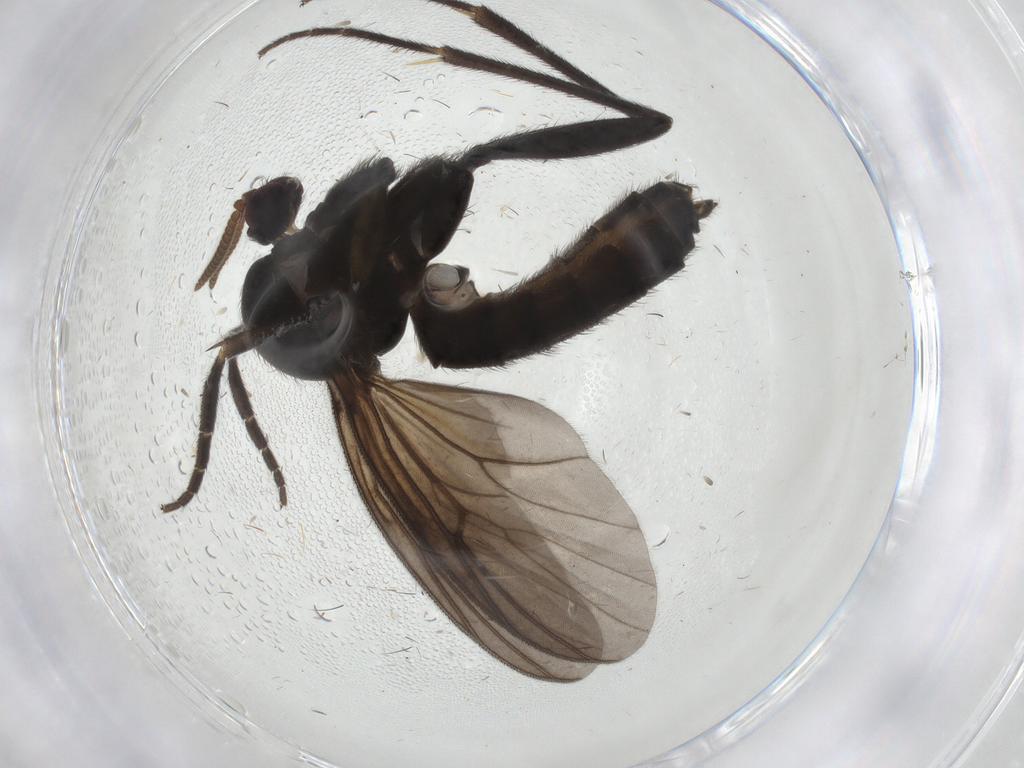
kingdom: Animalia
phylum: Arthropoda
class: Insecta
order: Diptera
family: Mycetophilidae
